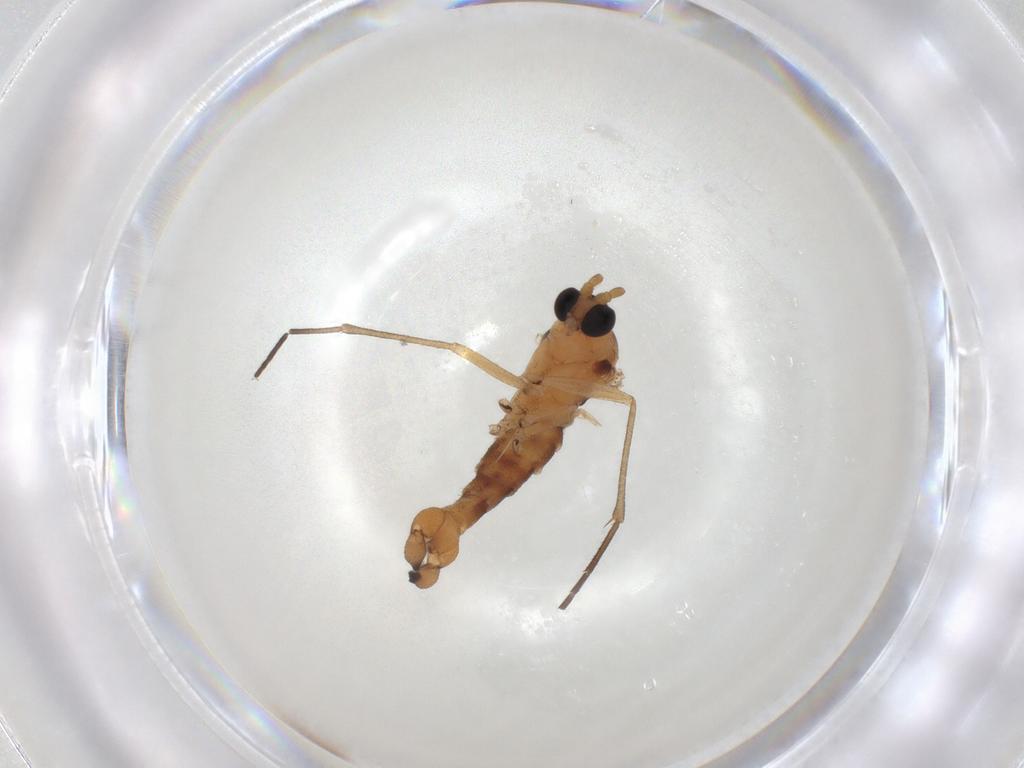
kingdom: Animalia
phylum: Arthropoda
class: Insecta
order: Diptera
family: Sciaridae
